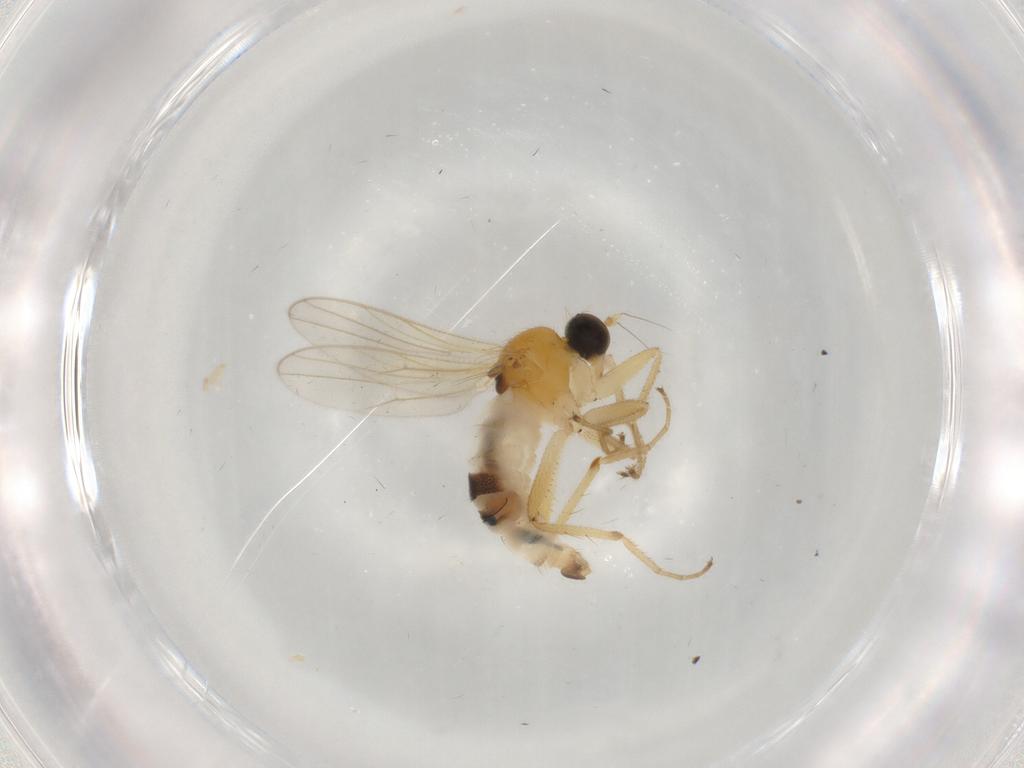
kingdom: Animalia
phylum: Arthropoda
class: Insecta
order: Diptera
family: Hybotidae
